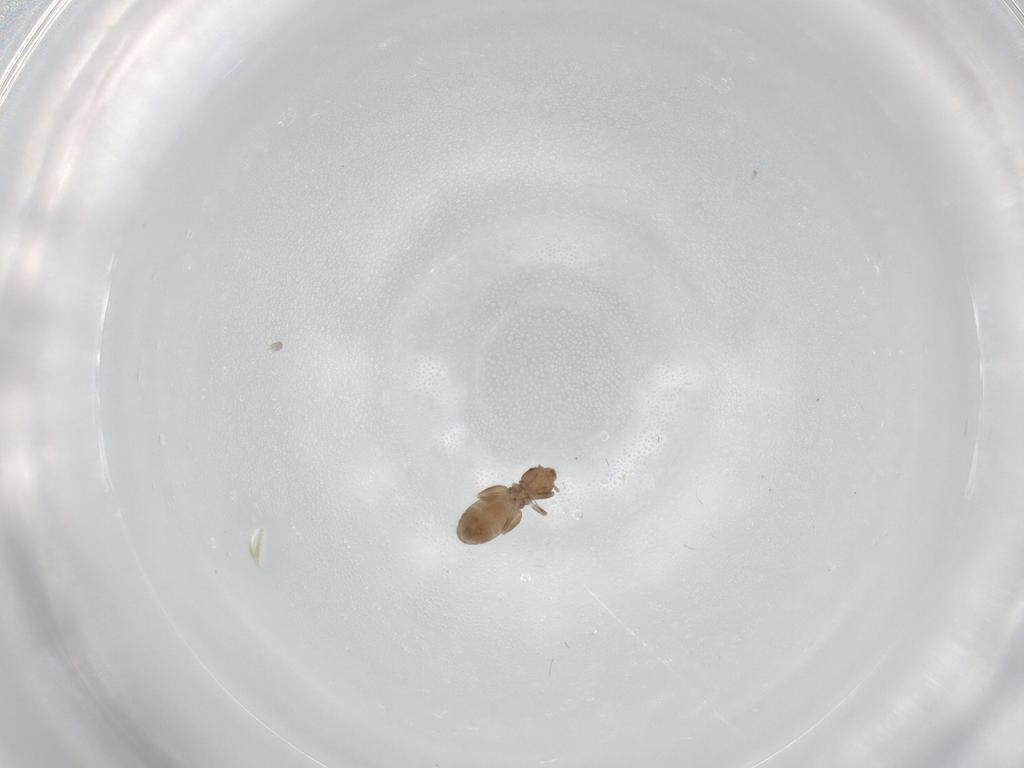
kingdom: Animalia
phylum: Arthropoda
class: Insecta
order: Psocodea
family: Liposcelididae
